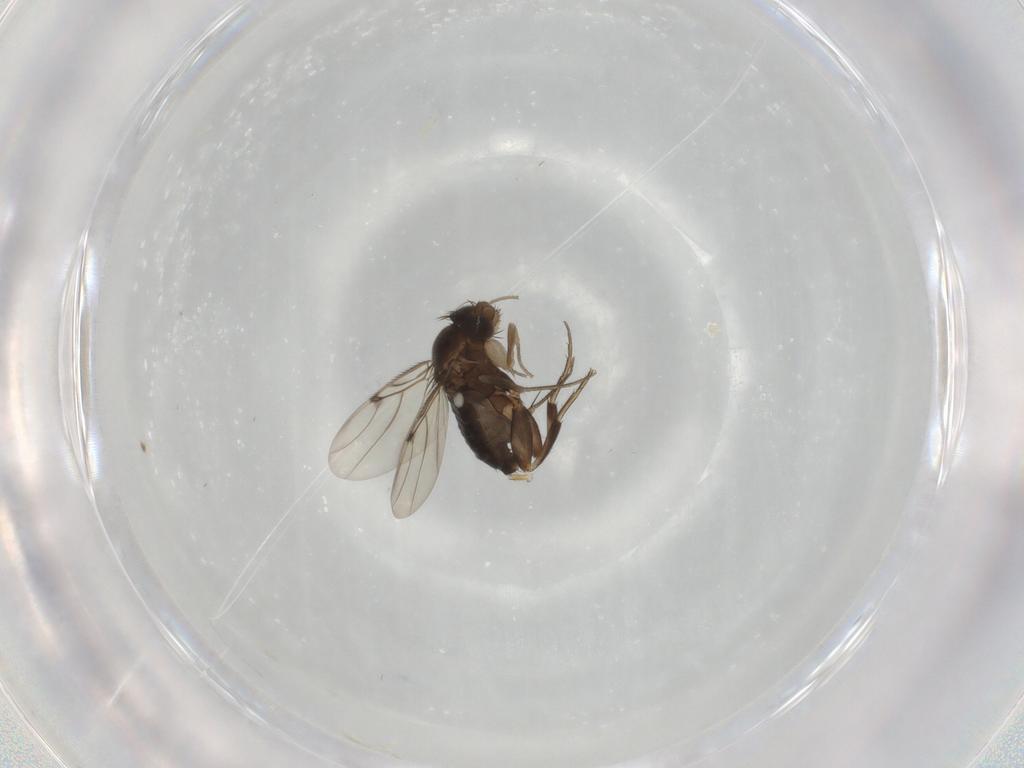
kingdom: Animalia
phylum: Arthropoda
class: Insecta
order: Diptera
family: Phoridae
